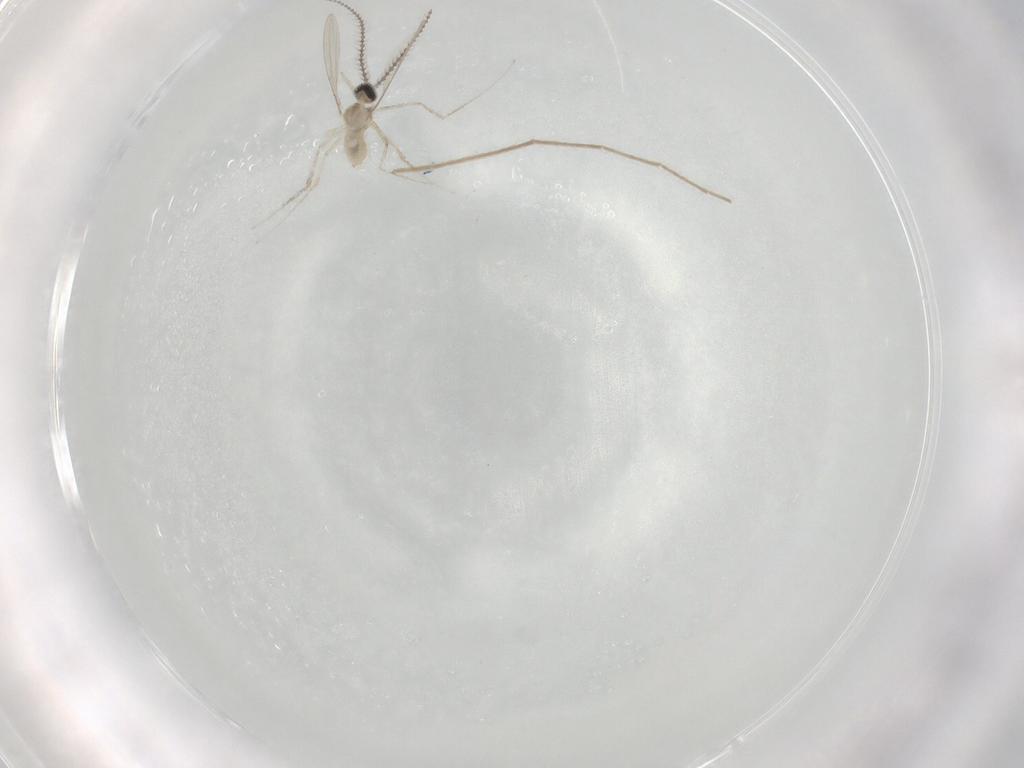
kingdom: Animalia
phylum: Arthropoda
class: Insecta
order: Diptera
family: Cecidomyiidae
